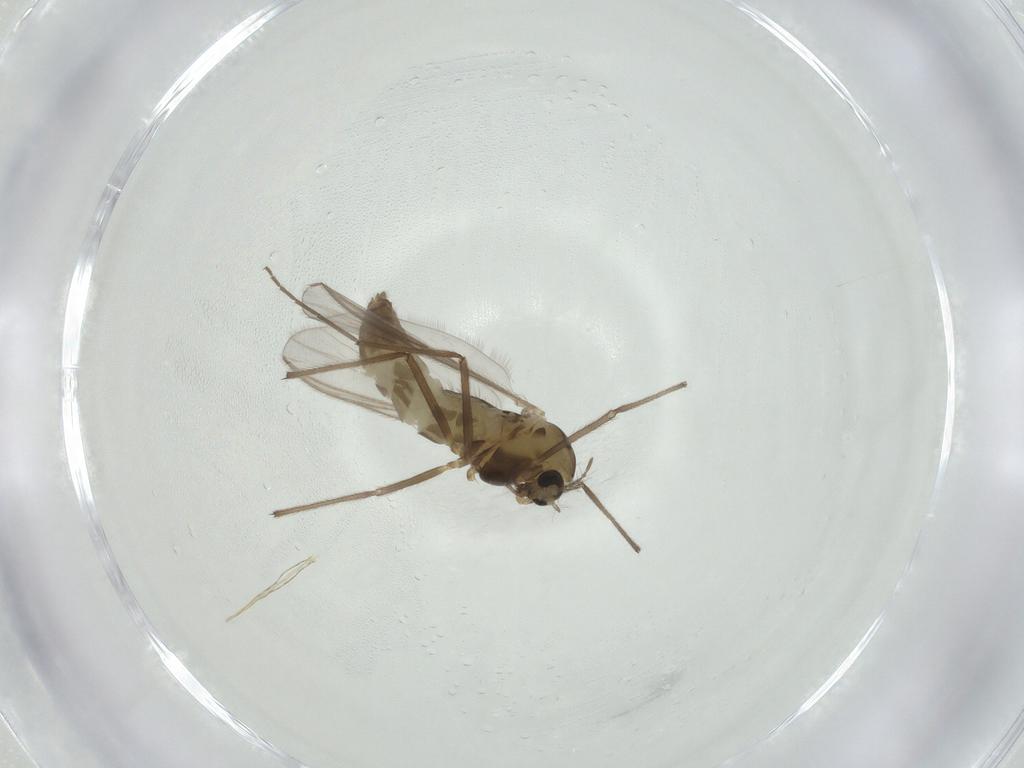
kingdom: Animalia
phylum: Arthropoda
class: Insecta
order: Diptera
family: Chironomidae
